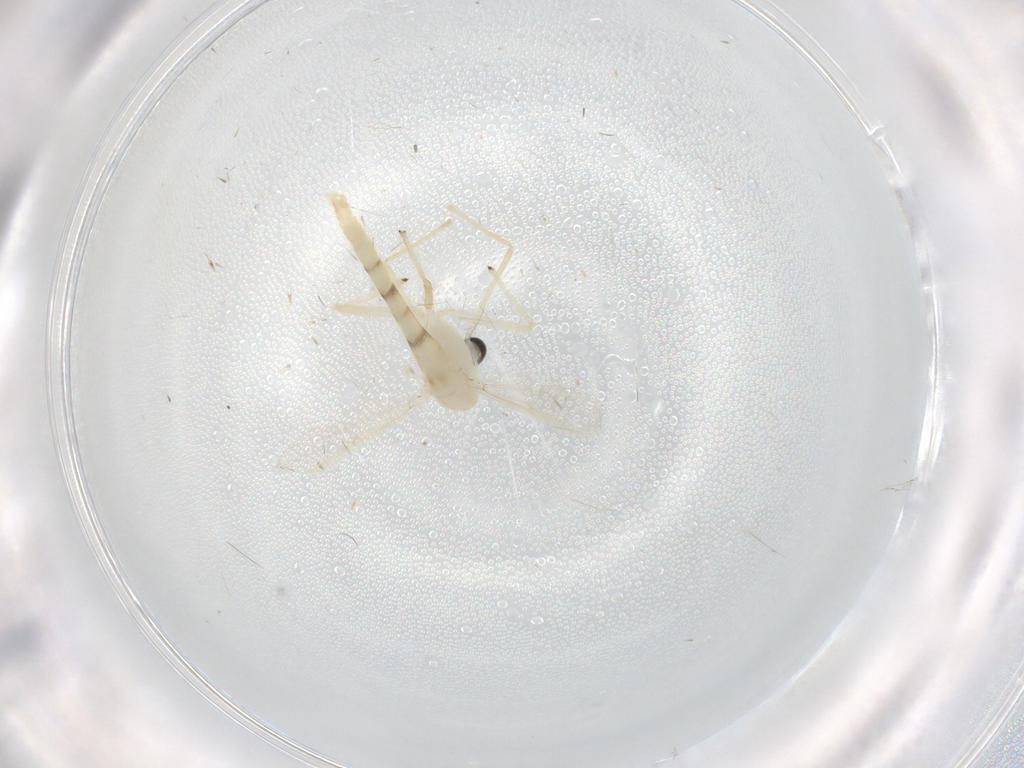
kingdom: Animalia
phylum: Arthropoda
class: Insecta
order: Diptera
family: Chironomidae
